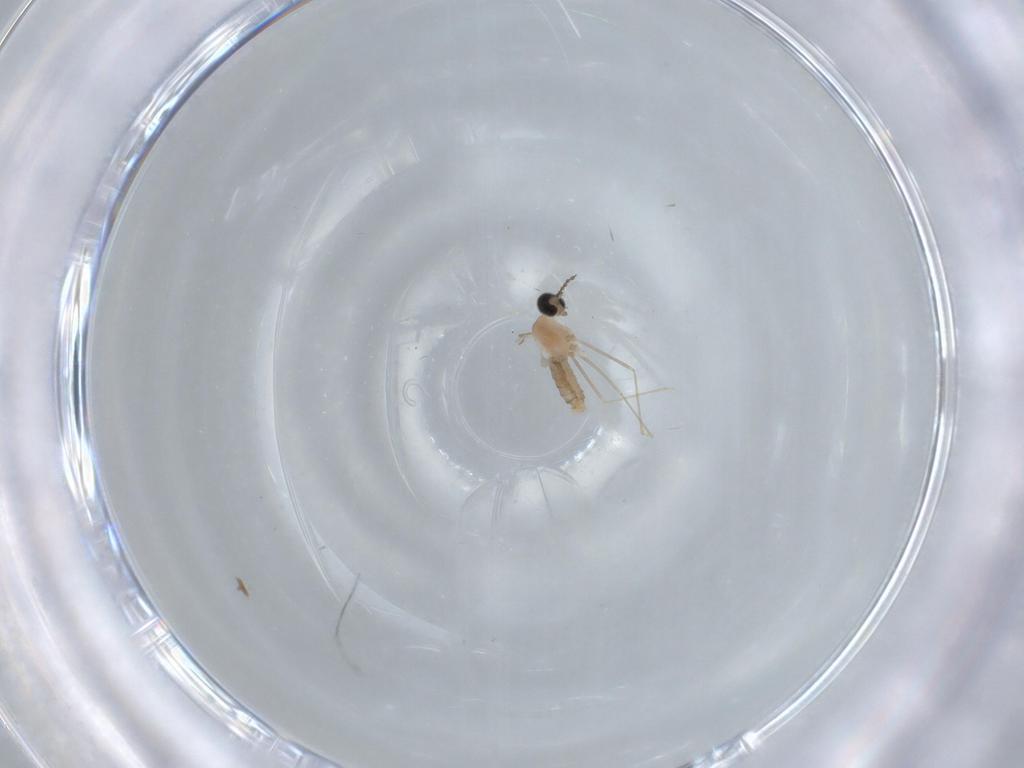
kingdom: Animalia
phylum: Arthropoda
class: Insecta
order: Diptera
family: Cecidomyiidae
